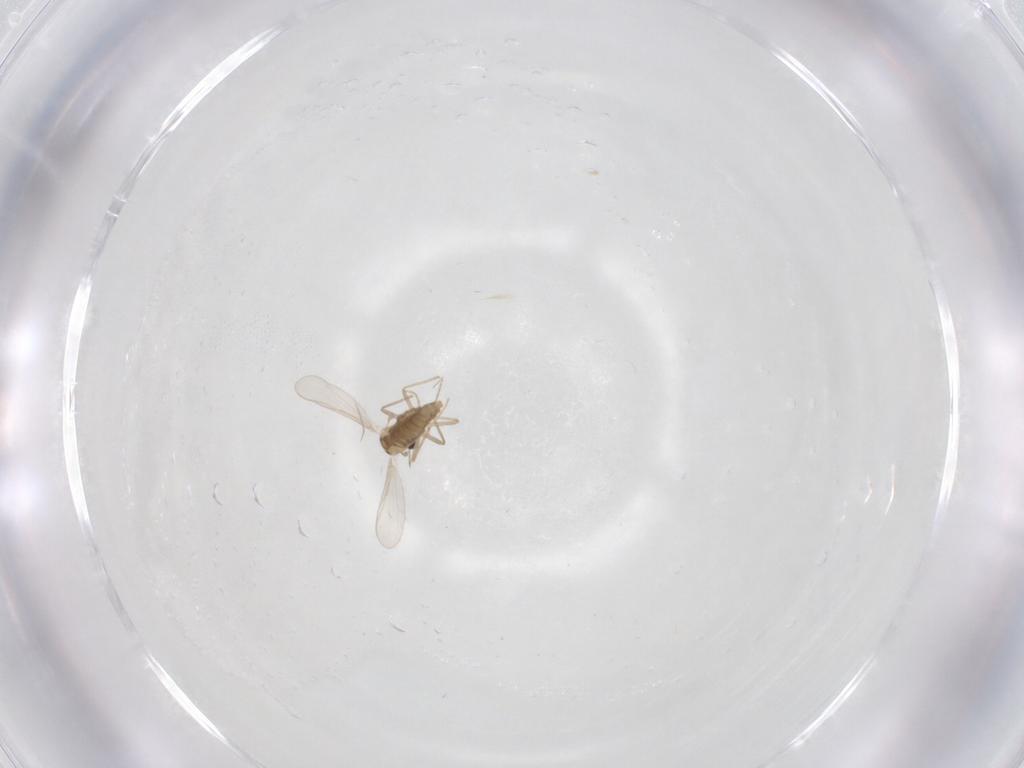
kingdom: Animalia
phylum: Arthropoda
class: Insecta
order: Diptera
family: Chironomidae
